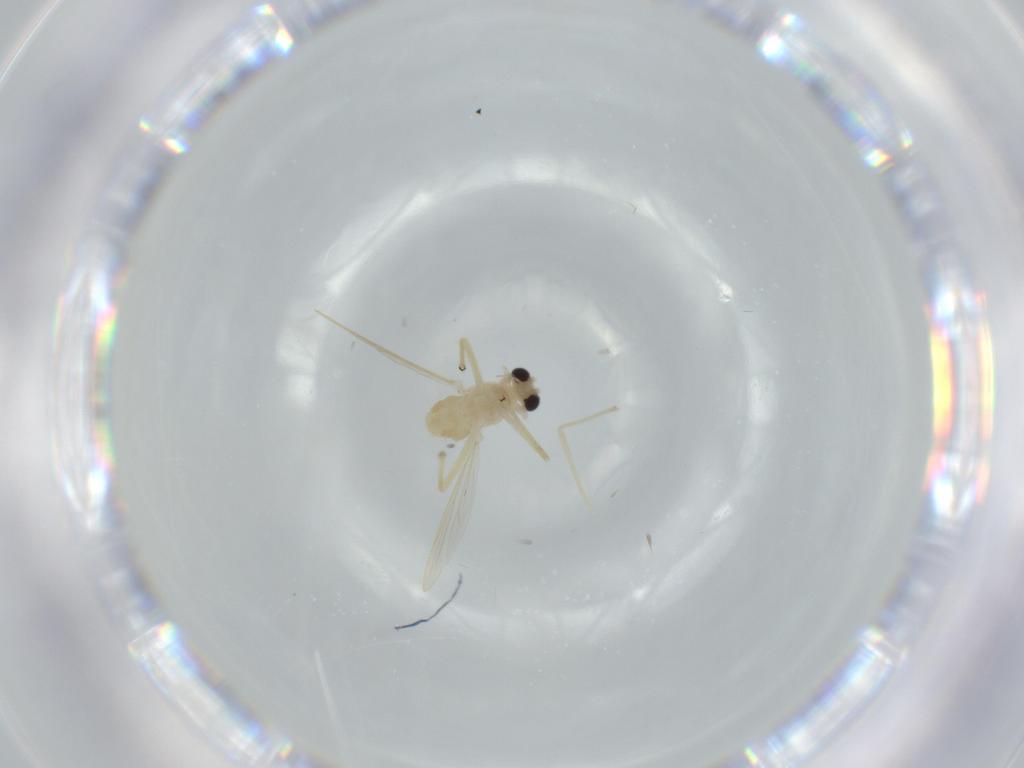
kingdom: Animalia
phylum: Arthropoda
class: Insecta
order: Diptera
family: Chironomidae
